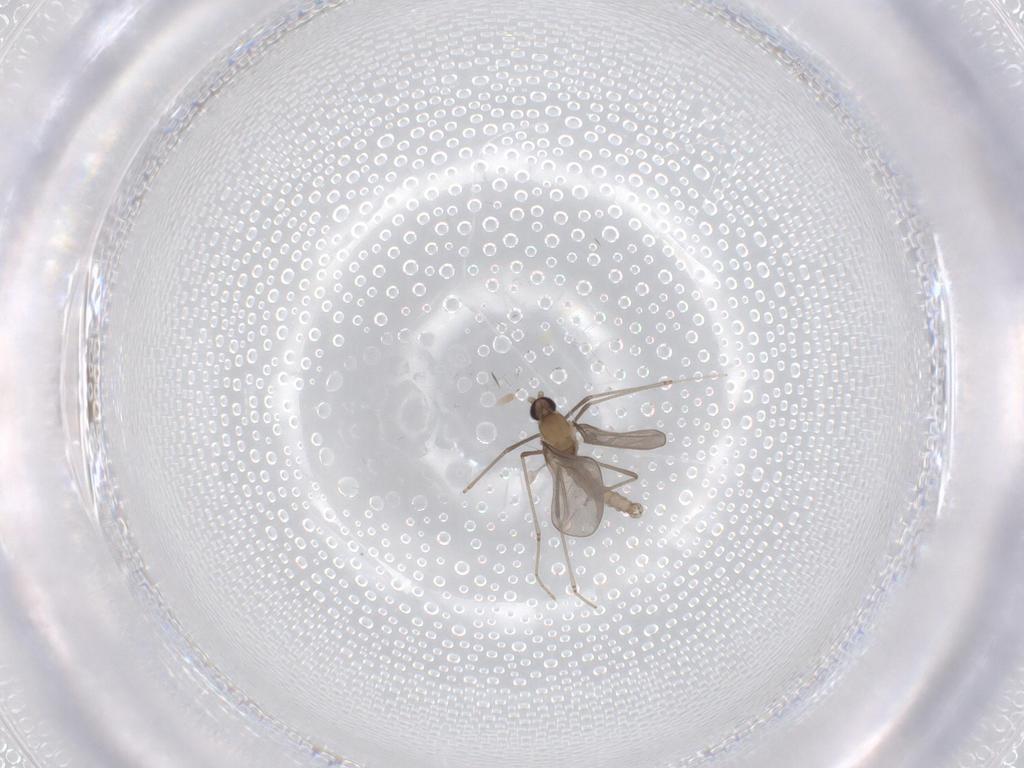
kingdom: Animalia
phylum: Arthropoda
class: Insecta
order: Diptera
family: Cecidomyiidae
